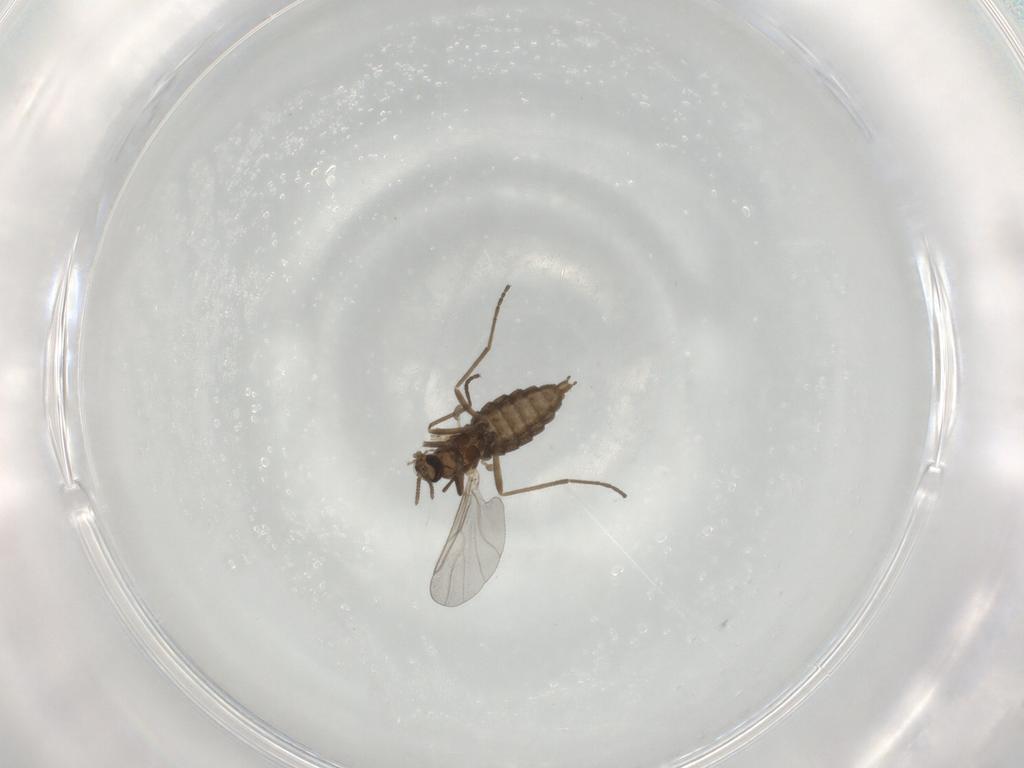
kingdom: Animalia
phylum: Arthropoda
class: Insecta
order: Diptera
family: Cecidomyiidae
